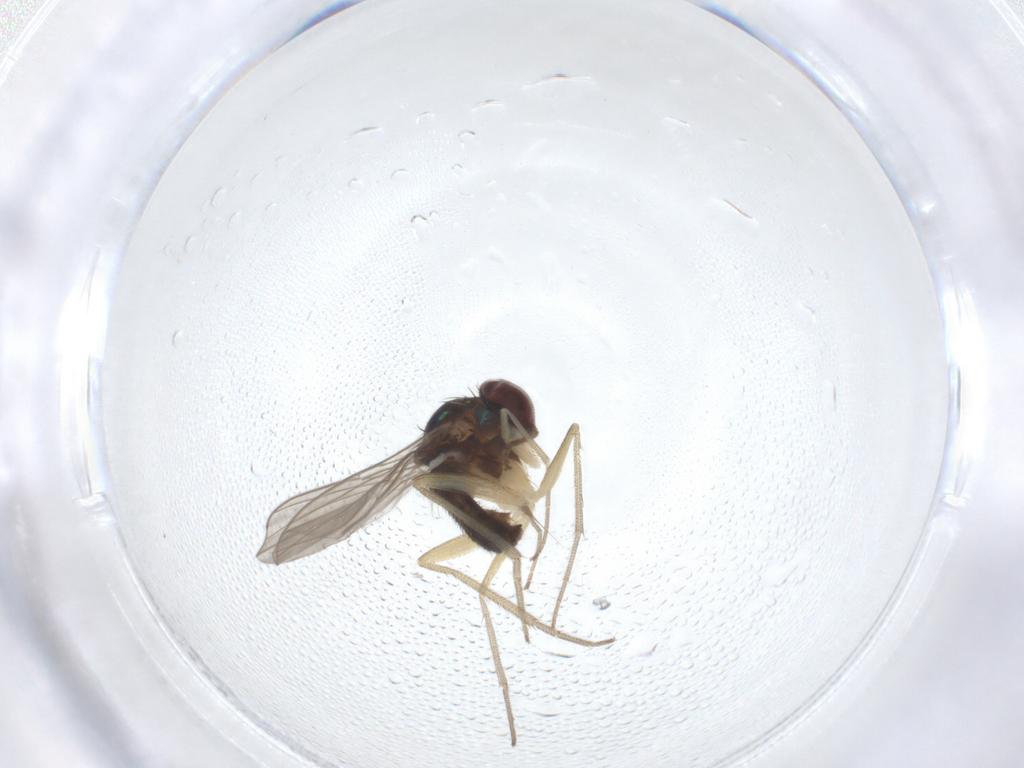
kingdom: Animalia
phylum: Arthropoda
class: Insecta
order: Diptera
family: Dolichopodidae
